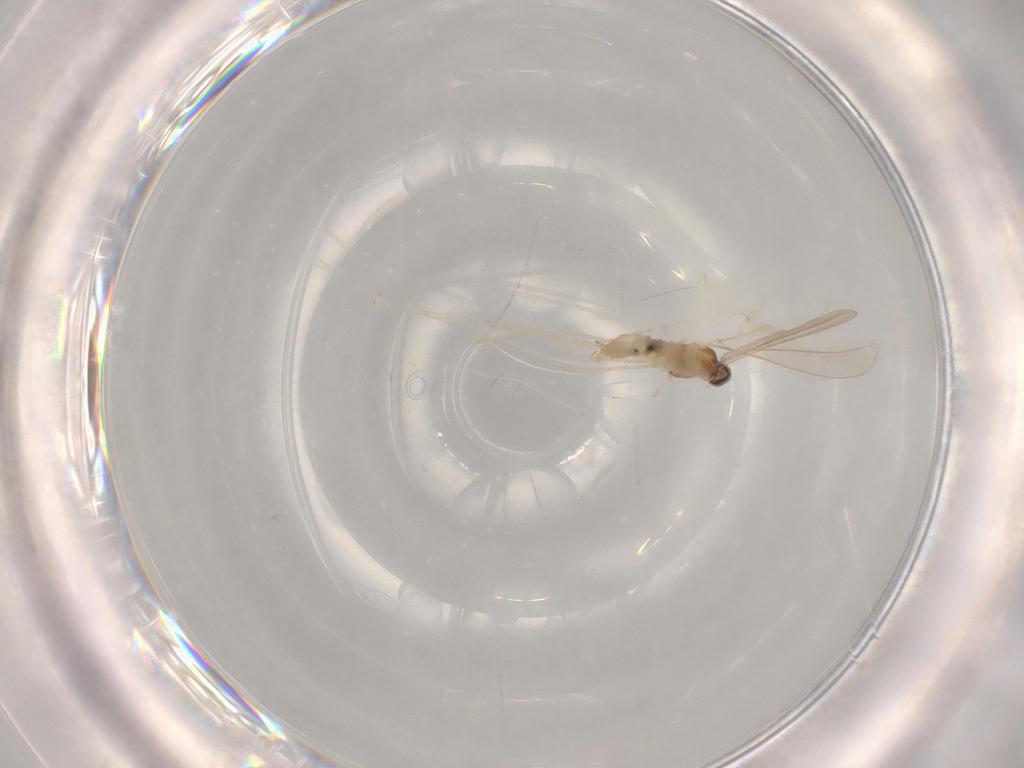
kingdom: Animalia
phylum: Arthropoda
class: Insecta
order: Diptera
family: Cecidomyiidae
